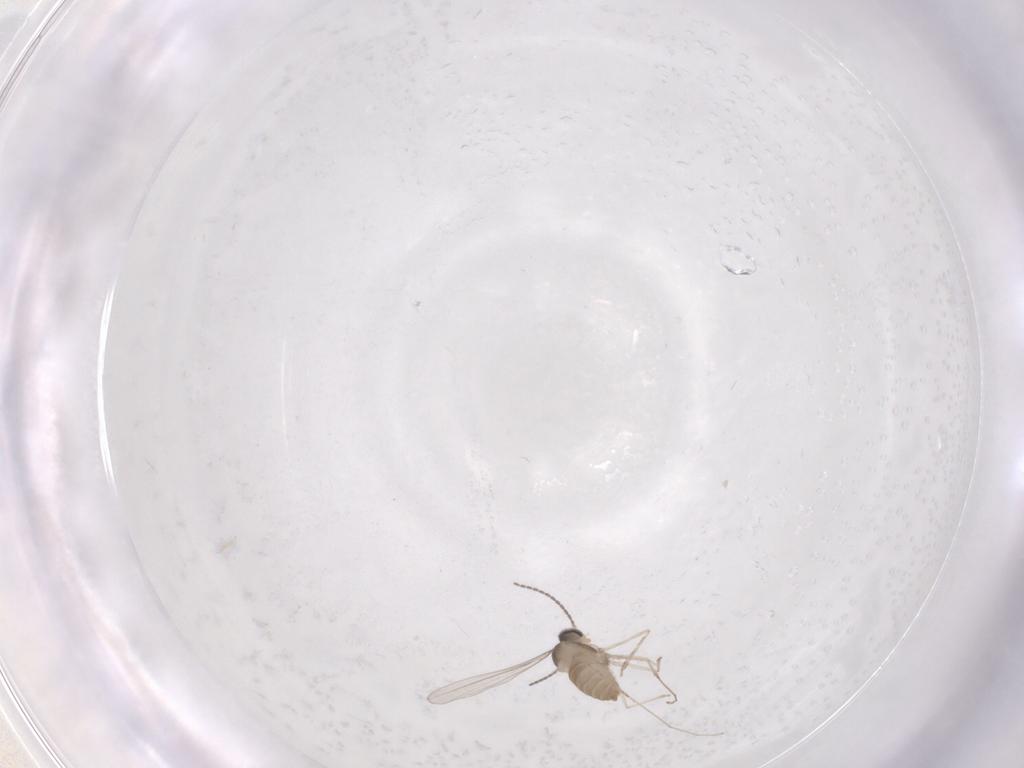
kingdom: Animalia
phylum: Arthropoda
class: Insecta
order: Diptera
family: Cecidomyiidae
